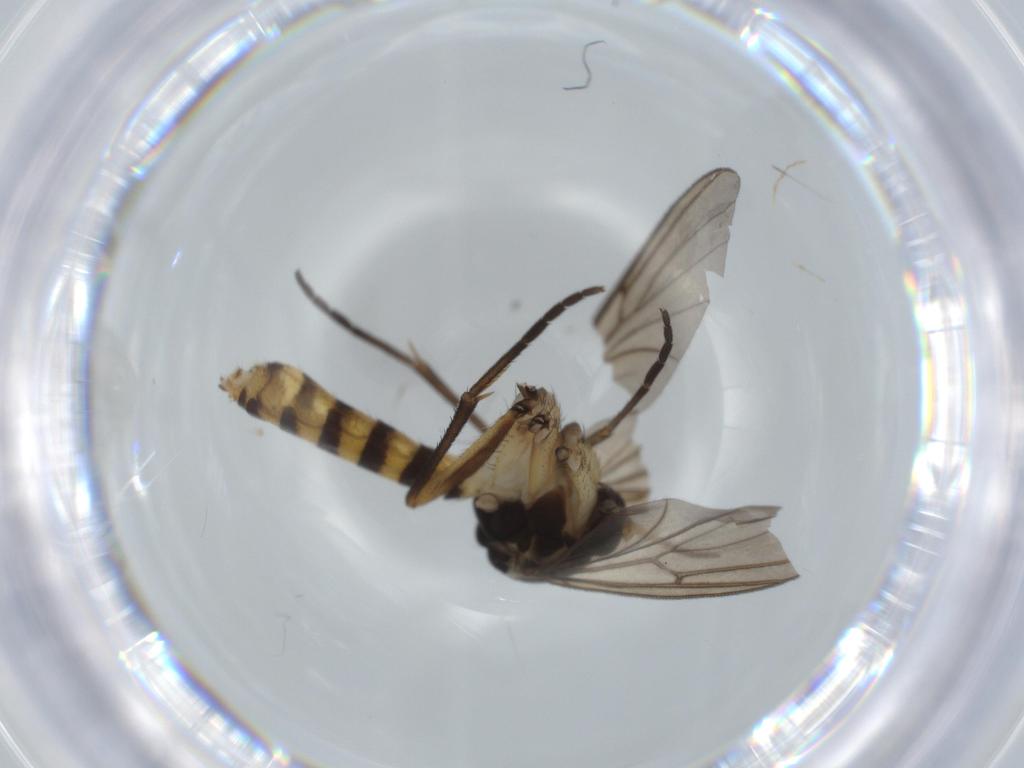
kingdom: Animalia
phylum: Arthropoda
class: Insecta
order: Diptera
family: Cecidomyiidae
